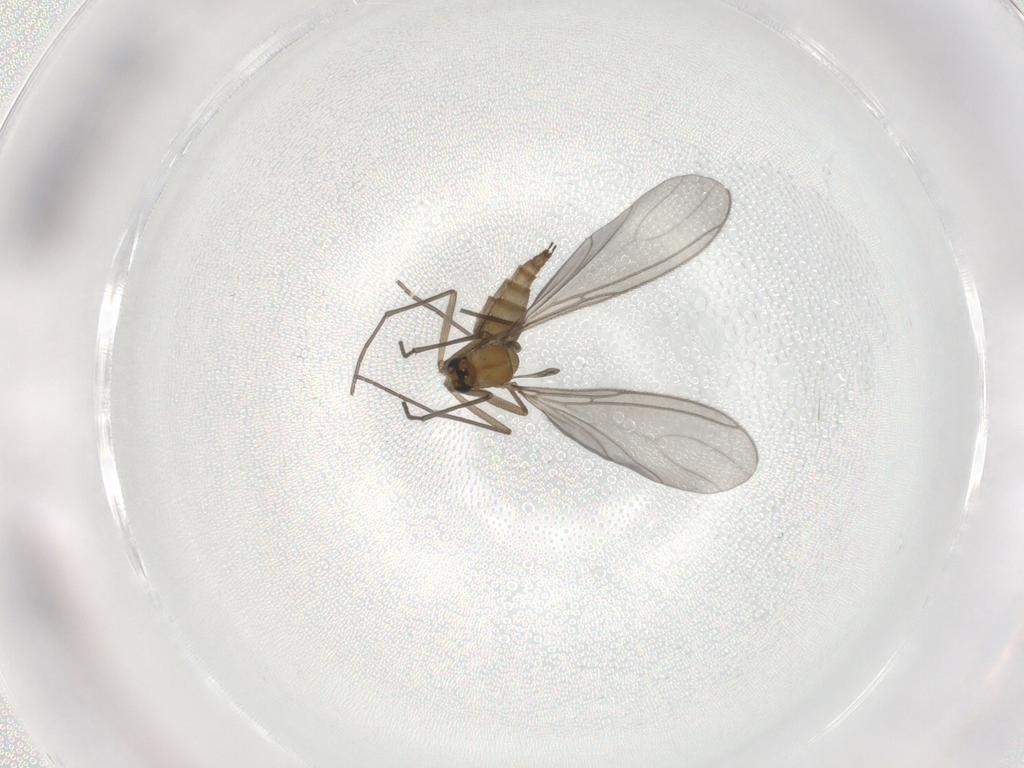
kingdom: Animalia
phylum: Arthropoda
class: Insecta
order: Diptera
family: Sciaridae
